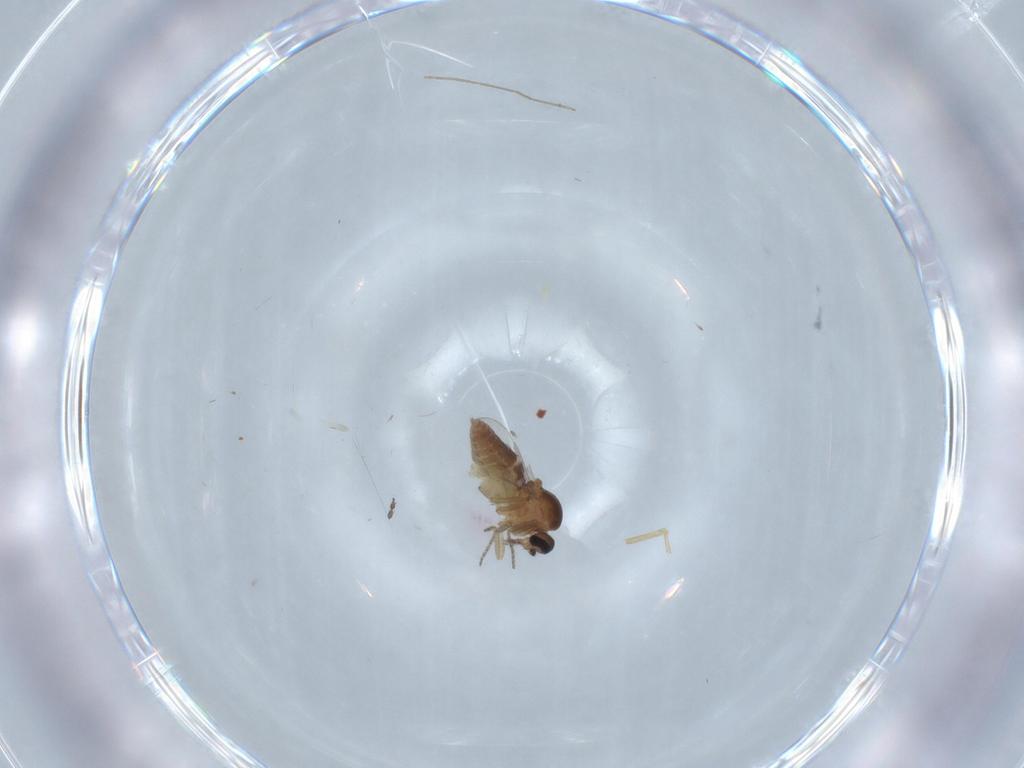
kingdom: Animalia
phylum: Arthropoda
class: Insecta
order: Diptera
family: Ceratopogonidae
